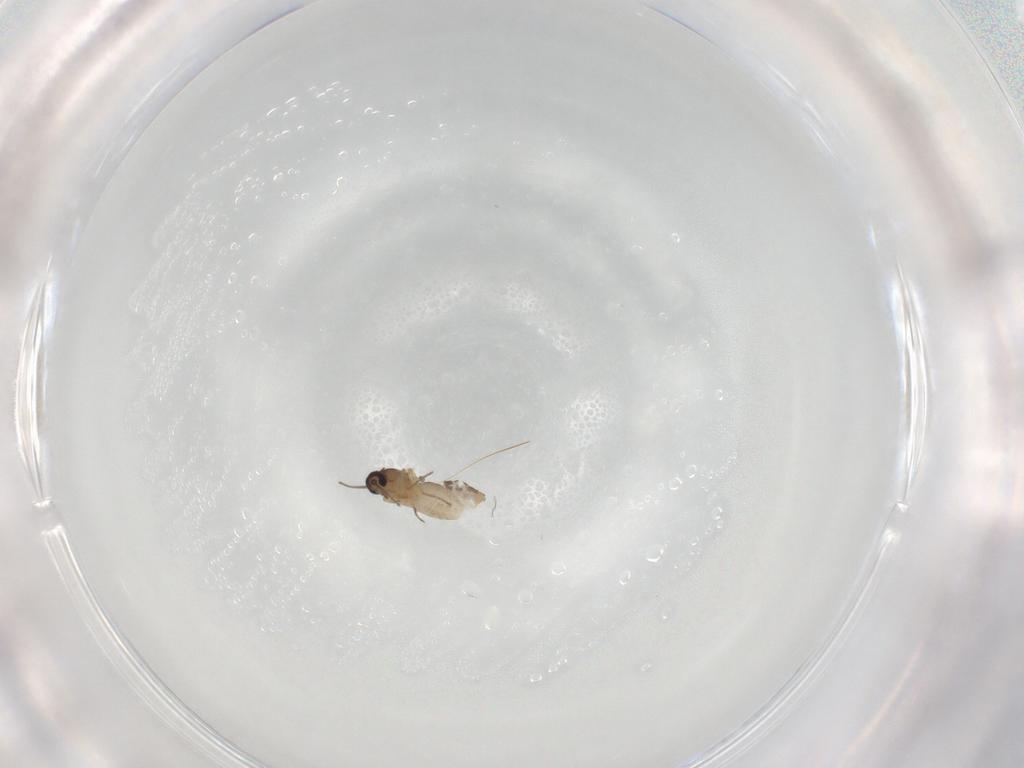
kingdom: Animalia
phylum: Arthropoda
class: Insecta
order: Diptera
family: Ceratopogonidae
